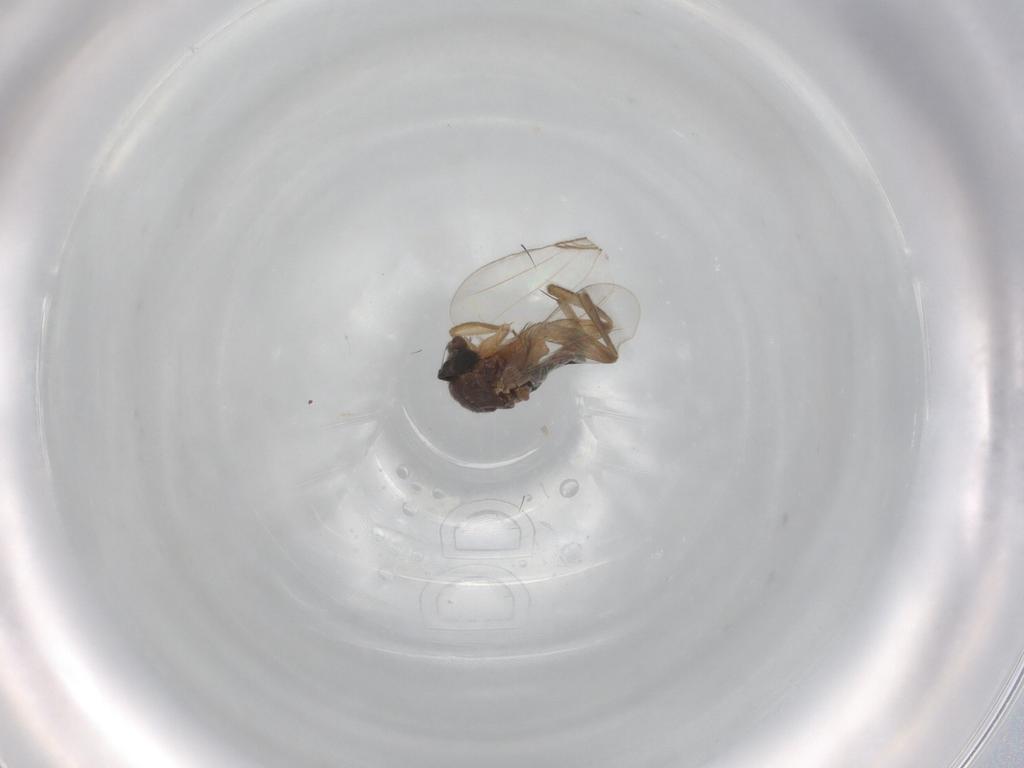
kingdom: Animalia
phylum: Arthropoda
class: Insecta
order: Diptera
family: Phoridae
